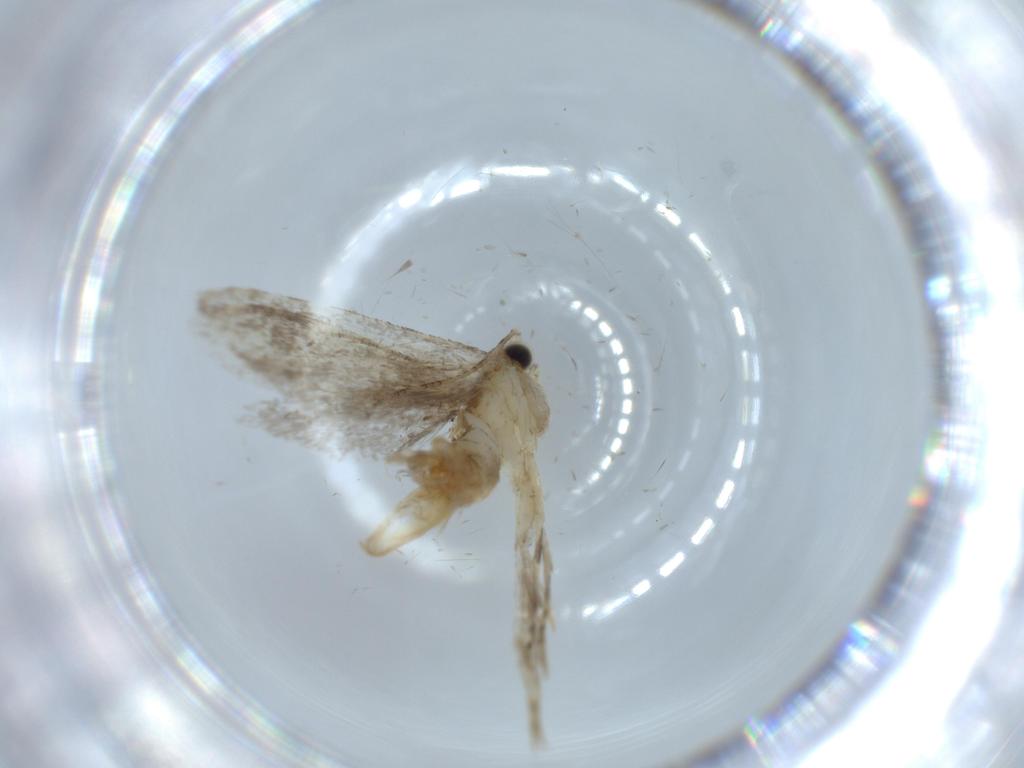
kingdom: Animalia
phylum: Arthropoda
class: Insecta
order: Lepidoptera
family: Tineidae
